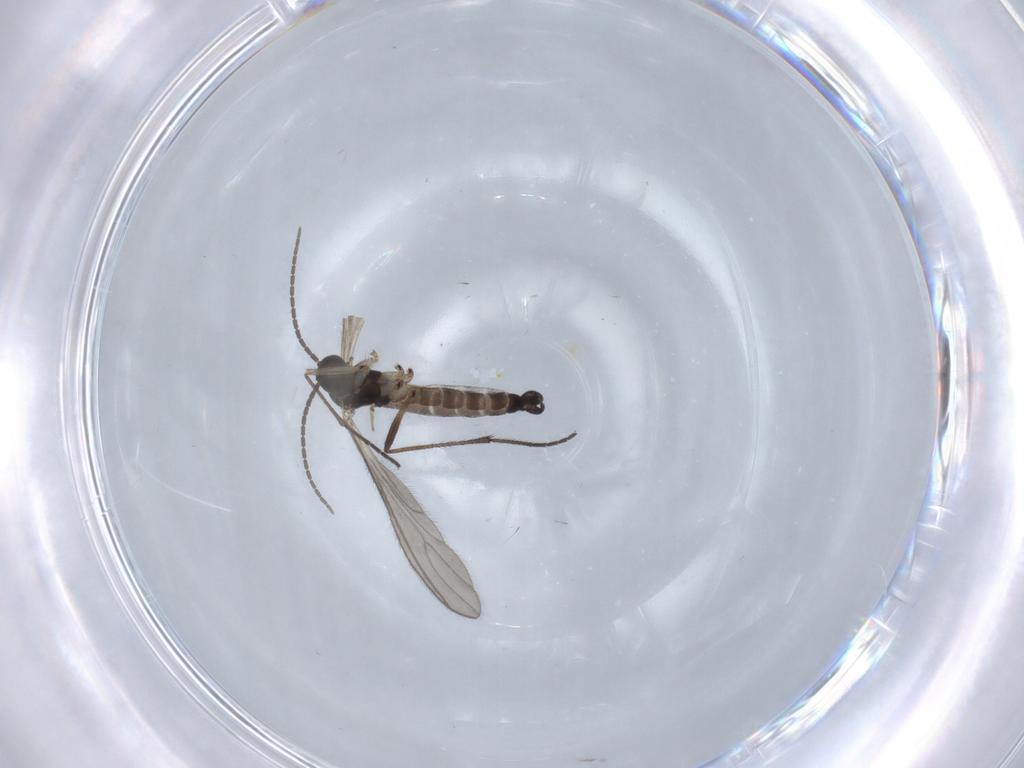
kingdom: Animalia
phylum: Arthropoda
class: Insecta
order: Diptera
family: Sciaridae
